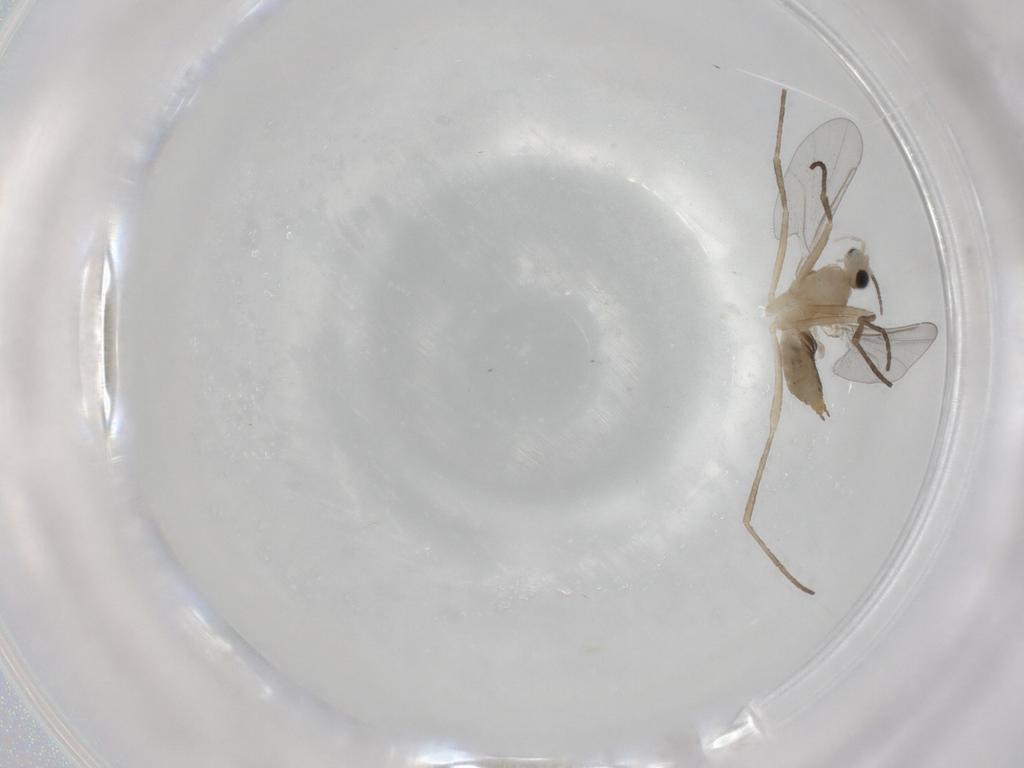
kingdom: Animalia
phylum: Arthropoda
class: Insecta
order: Diptera
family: Cecidomyiidae
